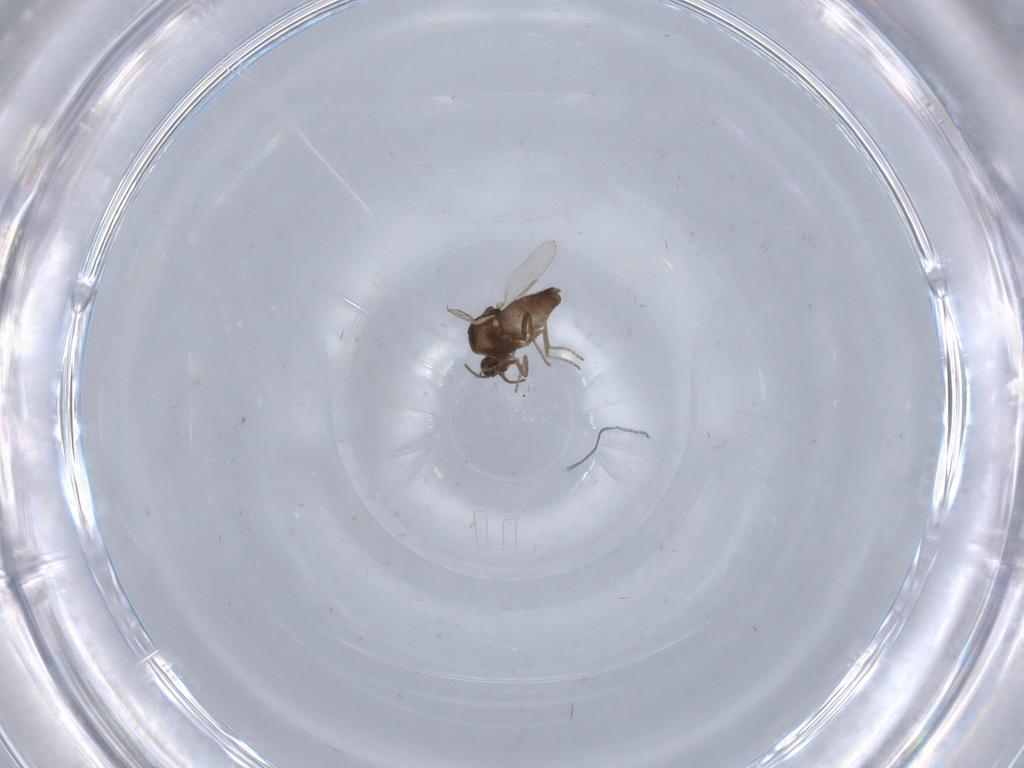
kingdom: Animalia
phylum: Arthropoda
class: Insecta
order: Diptera
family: Ceratopogonidae
